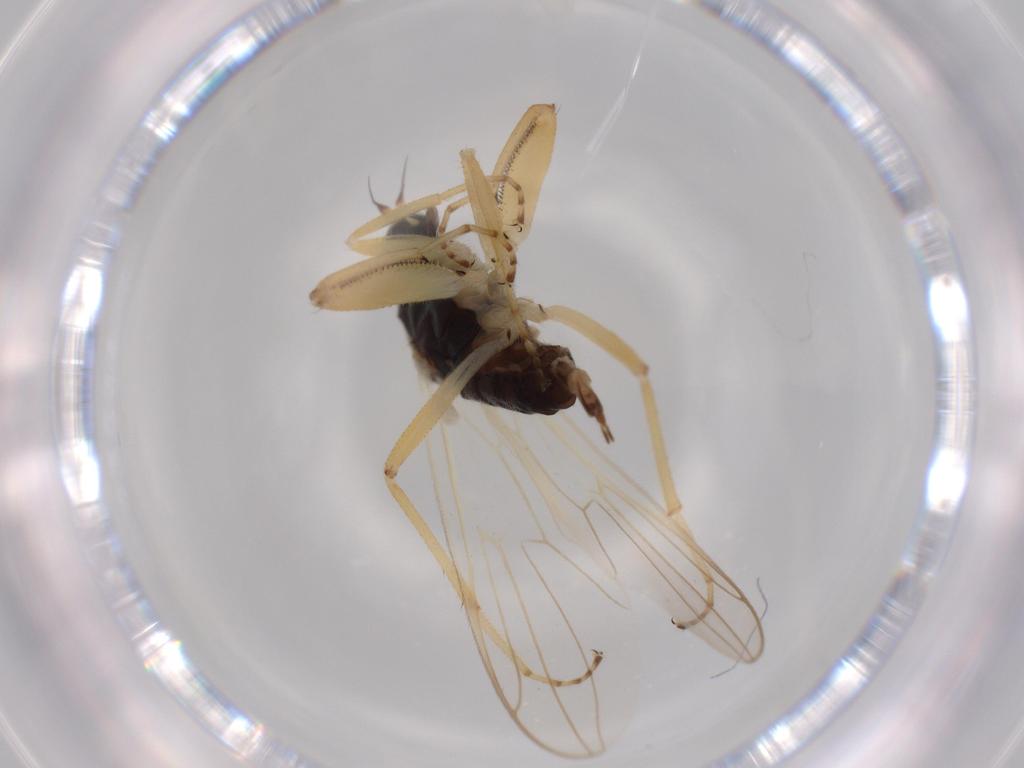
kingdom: Animalia
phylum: Arthropoda
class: Insecta
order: Diptera
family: Hybotidae
